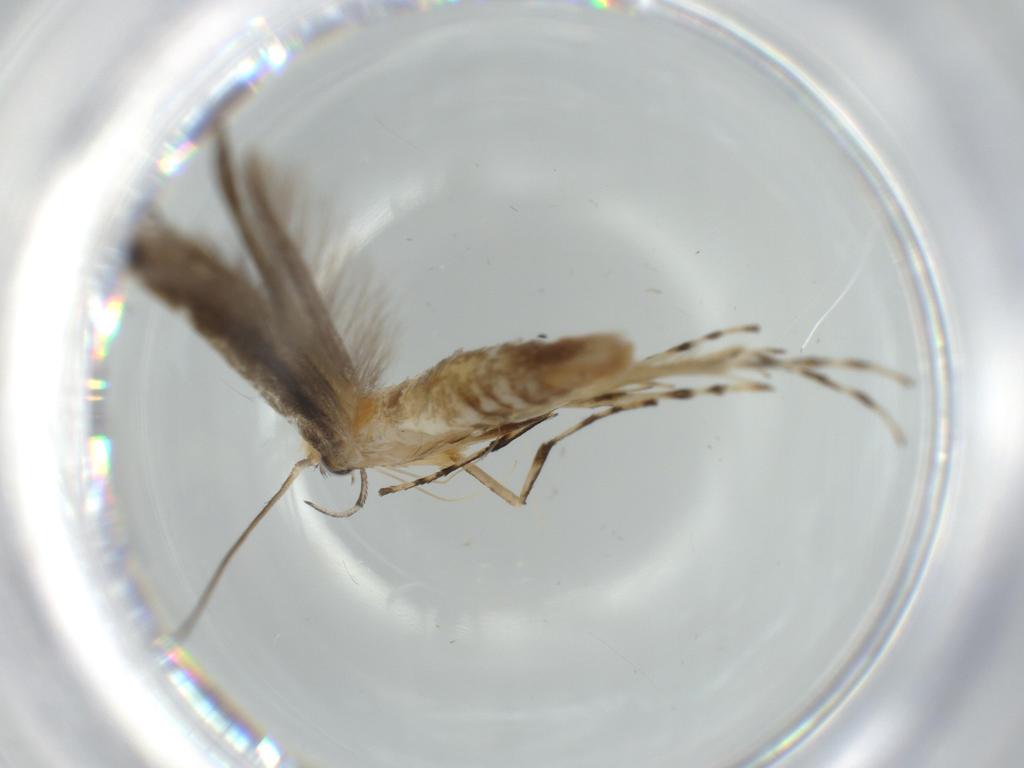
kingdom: Animalia
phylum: Arthropoda
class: Insecta
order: Lepidoptera
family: Gracillariidae
